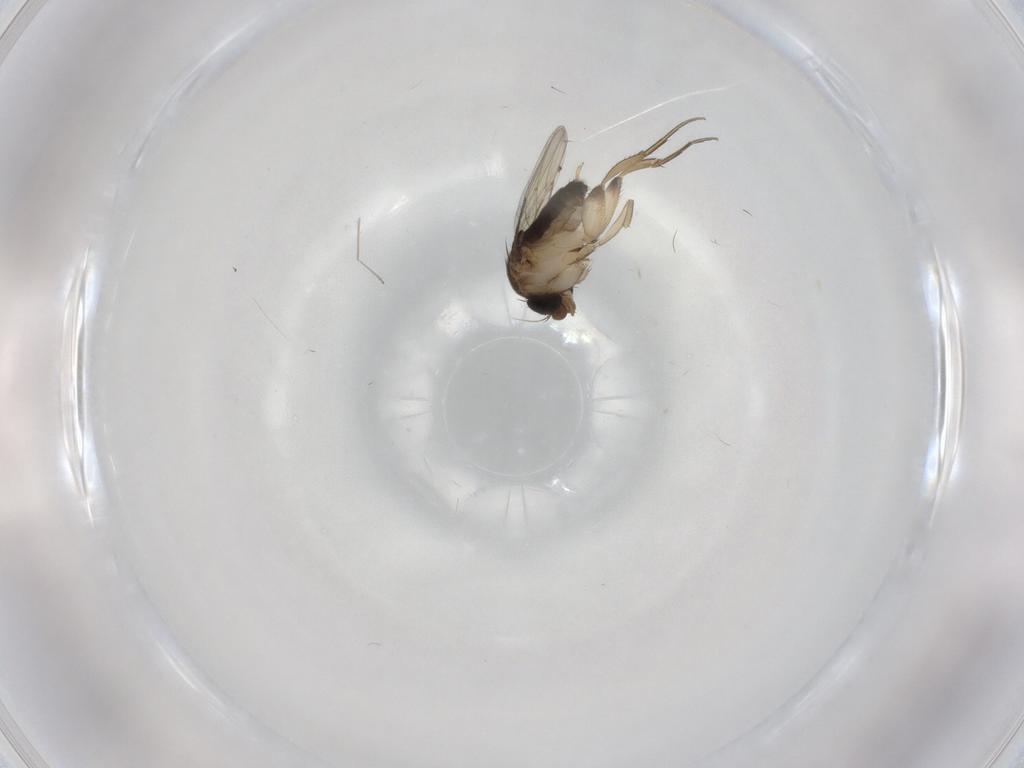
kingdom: Animalia
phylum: Arthropoda
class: Insecta
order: Diptera
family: Phoridae
